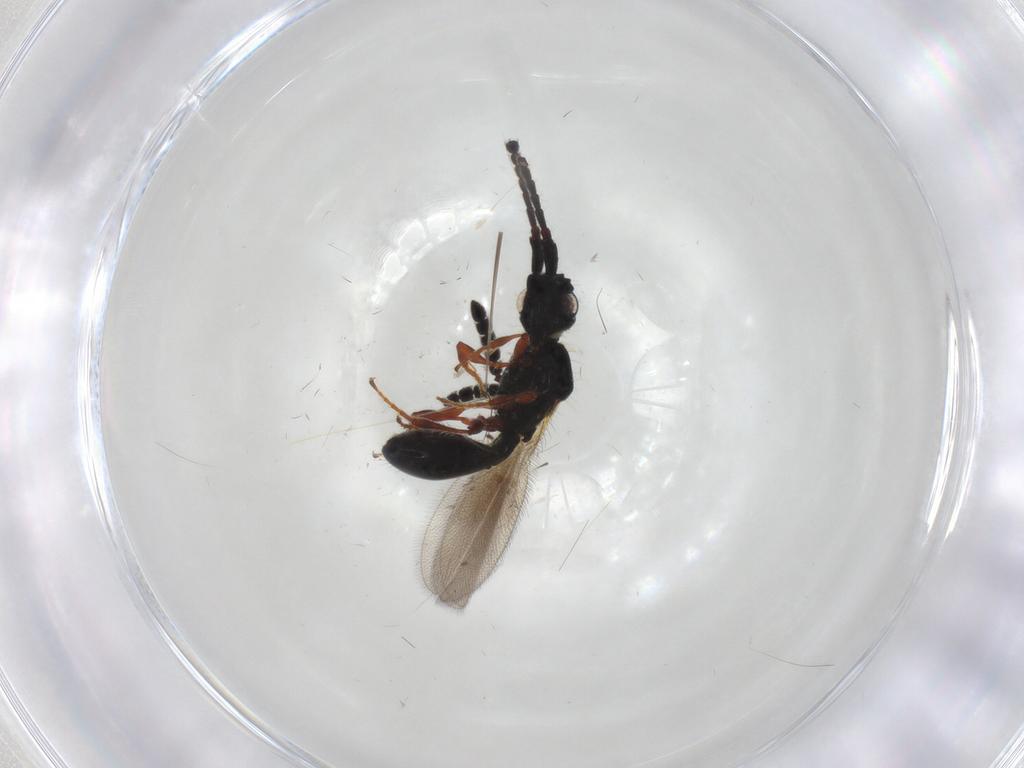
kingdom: Animalia
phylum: Arthropoda
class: Insecta
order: Hymenoptera
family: Diapriidae
